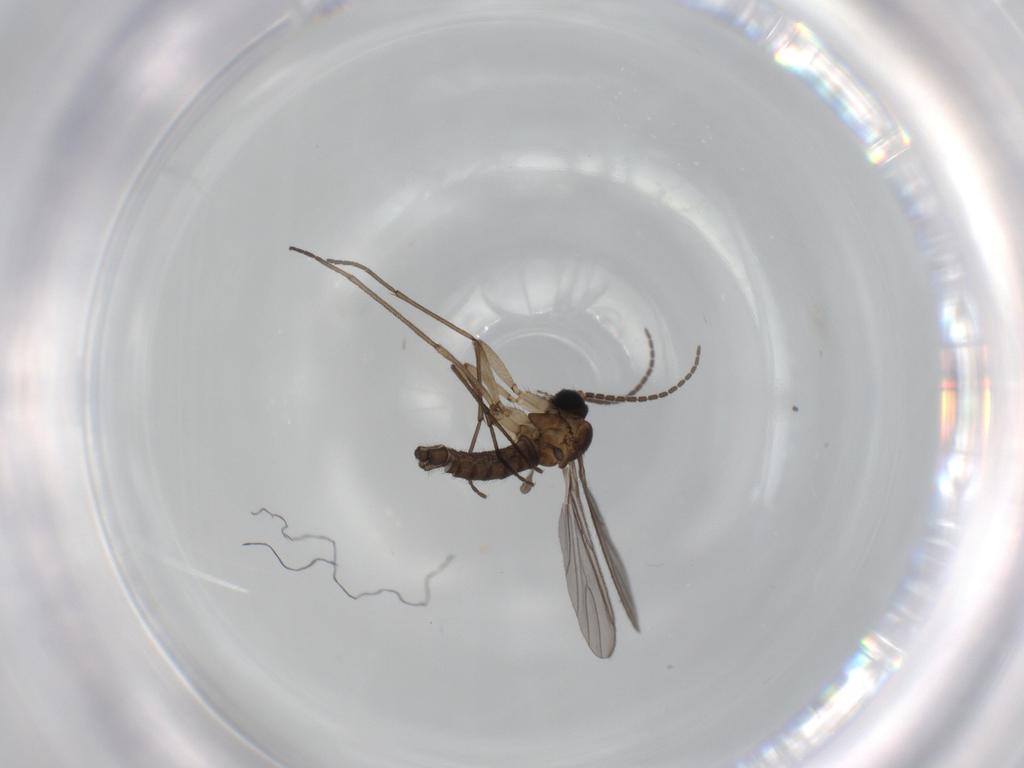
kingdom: Animalia
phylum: Arthropoda
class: Insecta
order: Diptera
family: Sciaridae
